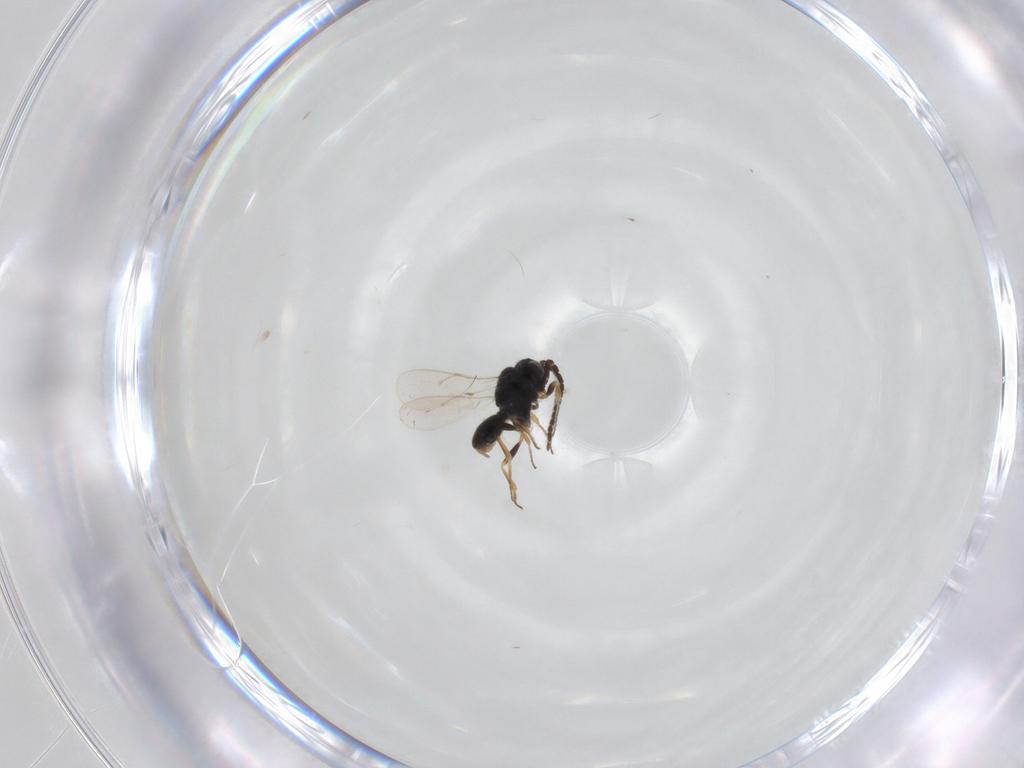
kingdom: Animalia
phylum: Arthropoda
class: Insecta
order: Hymenoptera
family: Scelionidae
